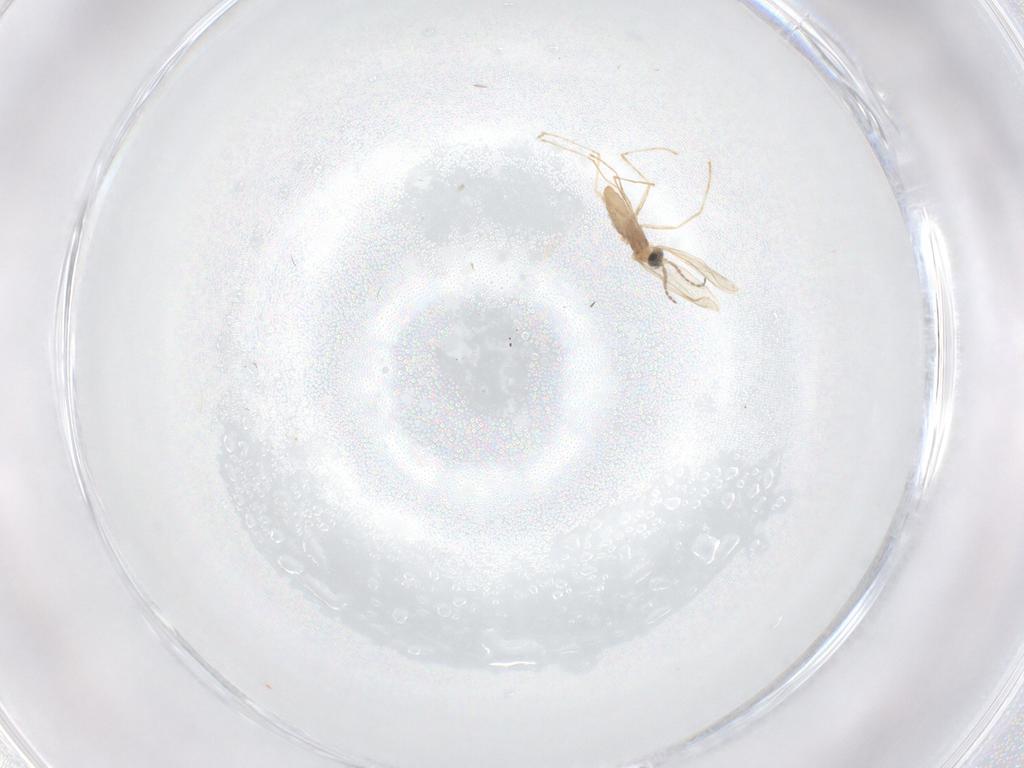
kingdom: Animalia
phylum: Arthropoda
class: Insecta
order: Diptera
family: Cecidomyiidae
